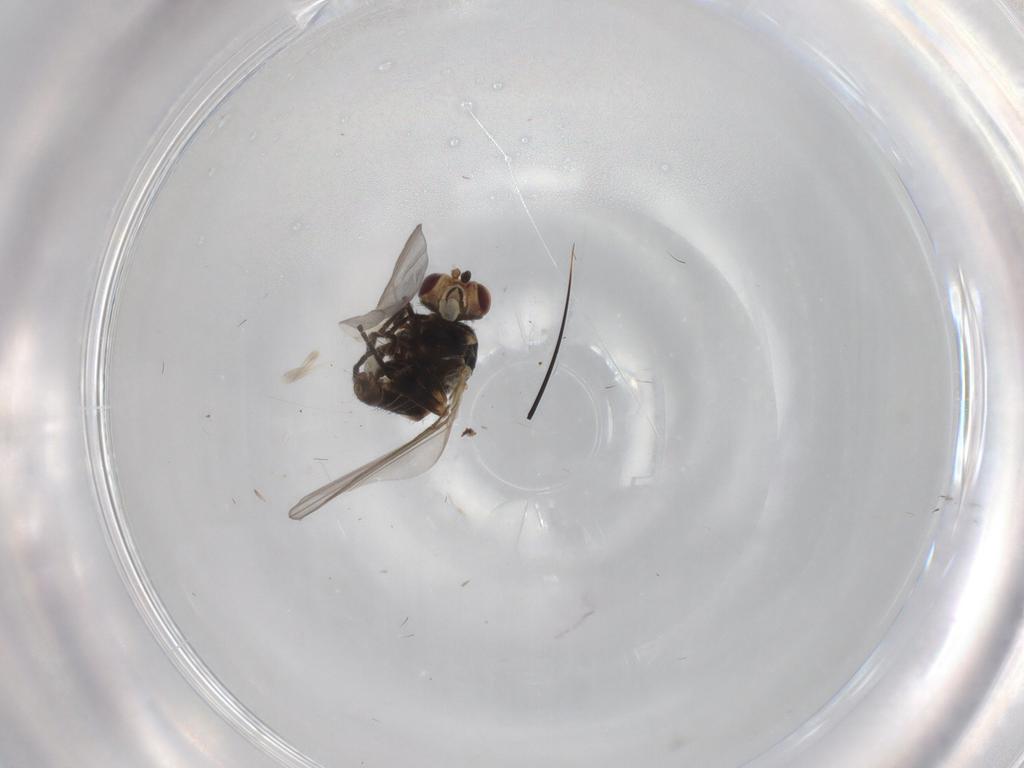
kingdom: Animalia
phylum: Arthropoda
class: Insecta
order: Diptera
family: Agromyzidae
